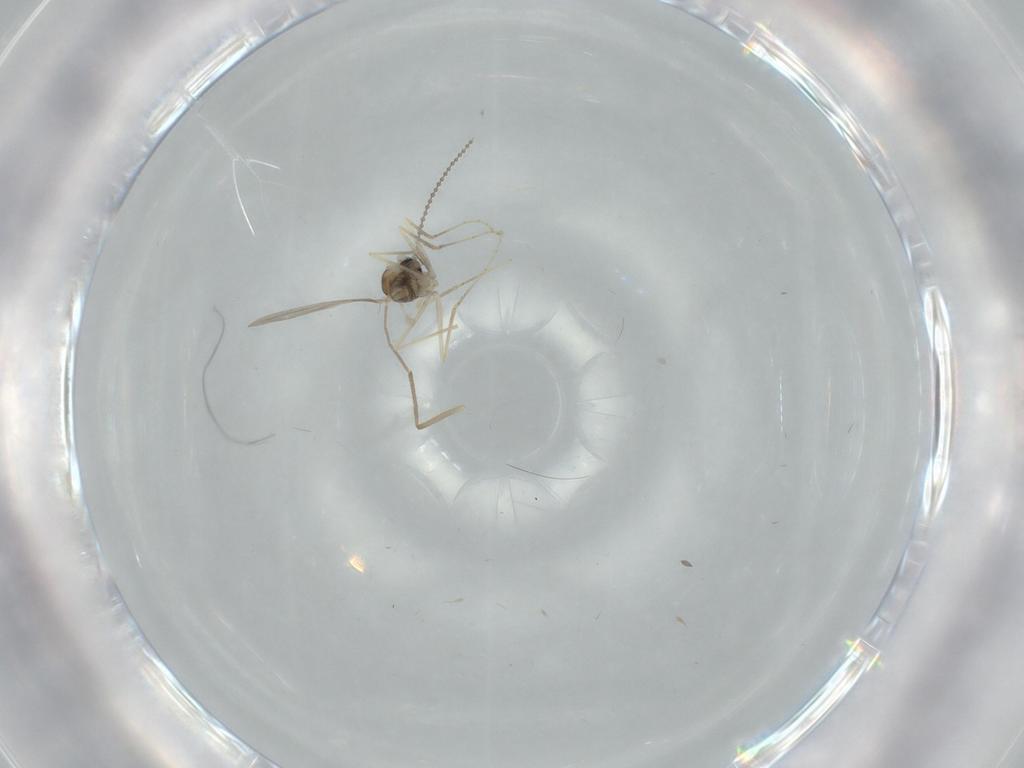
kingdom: Animalia
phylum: Arthropoda
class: Insecta
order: Diptera
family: Cecidomyiidae
